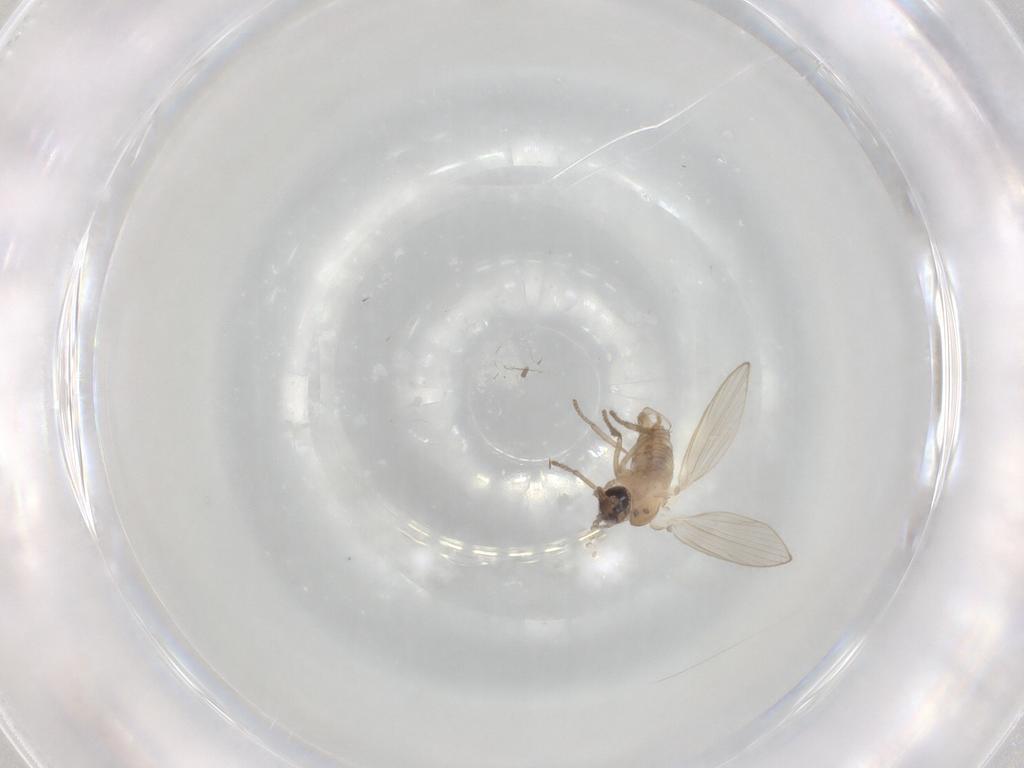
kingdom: Animalia
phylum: Arthropoda
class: Insecta
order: Diptera
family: Psychodidae
